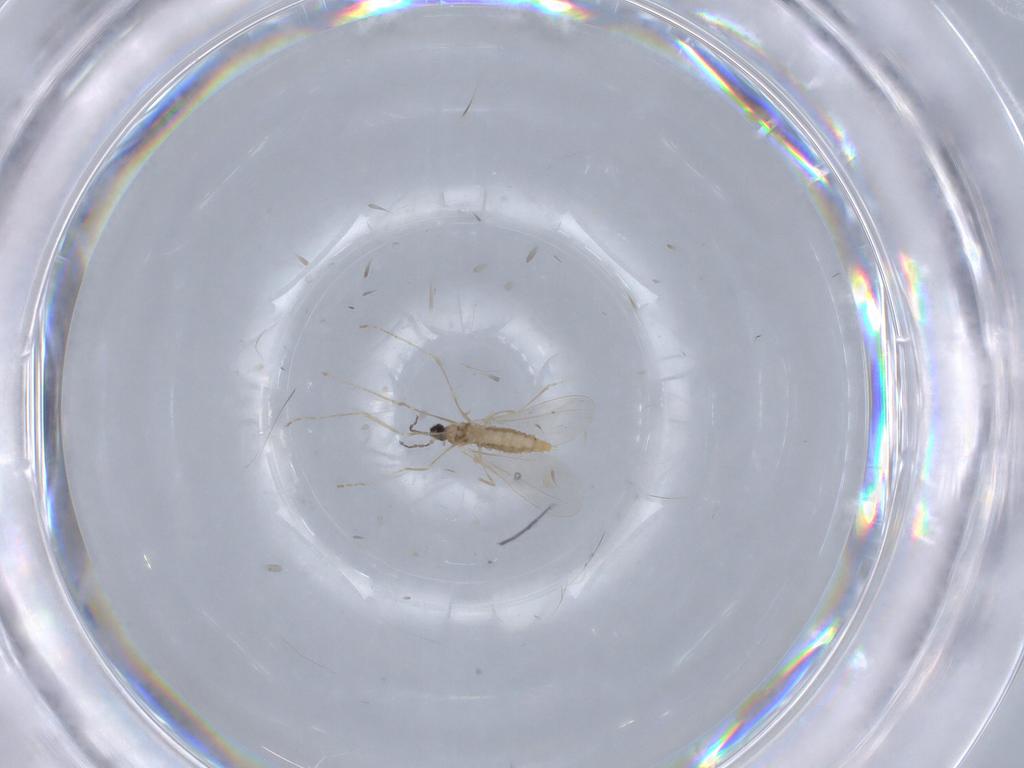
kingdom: Animalia
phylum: Arthropoda
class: Insecta
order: Diptera
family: Cecidomyiidae
